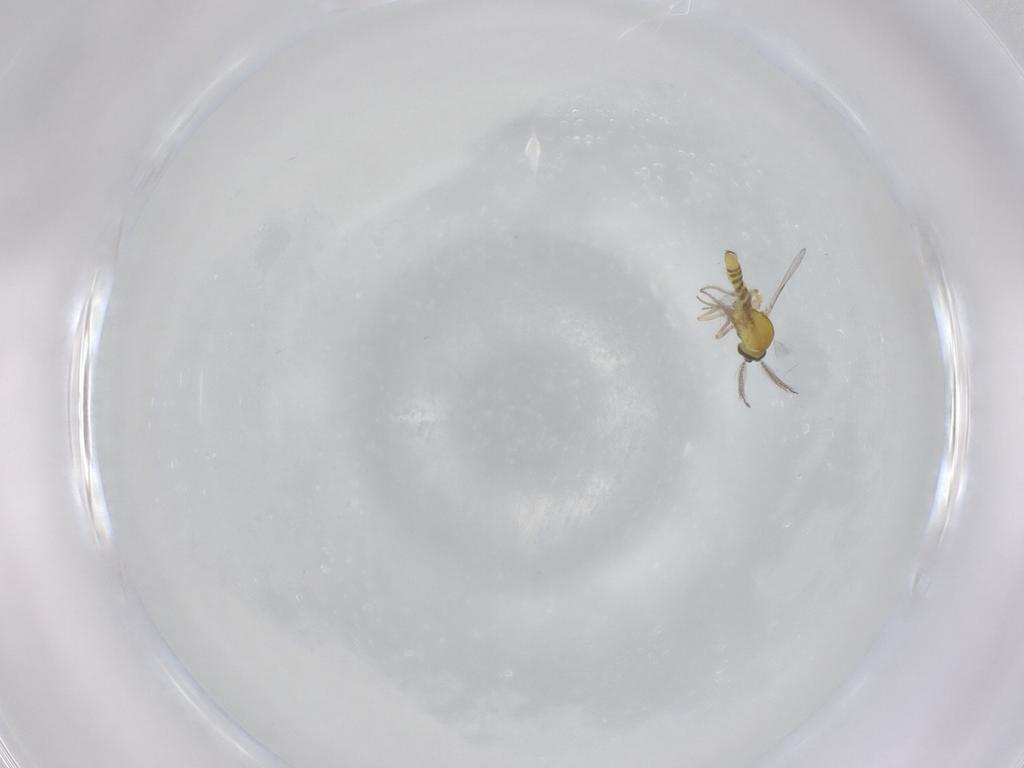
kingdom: Animalia
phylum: Arthropoda
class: Insecta
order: Diptera
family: Ceratopogonidae
